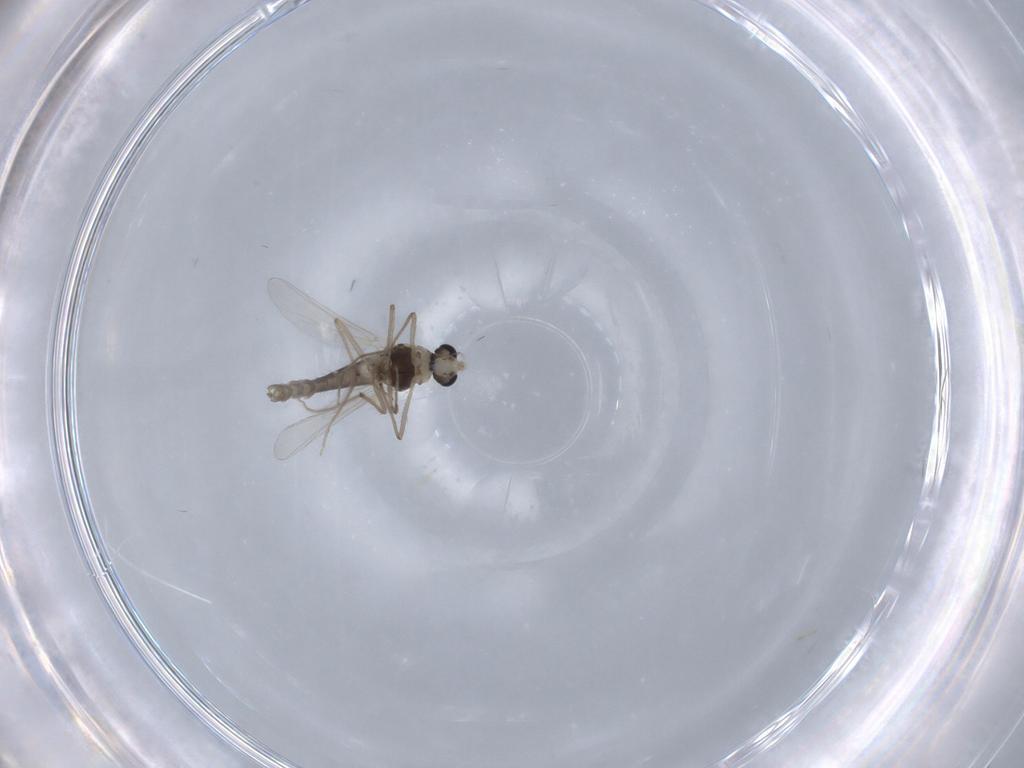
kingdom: Animalia
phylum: Arthropoda
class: Insecta
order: Diptera
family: Chironomidae
